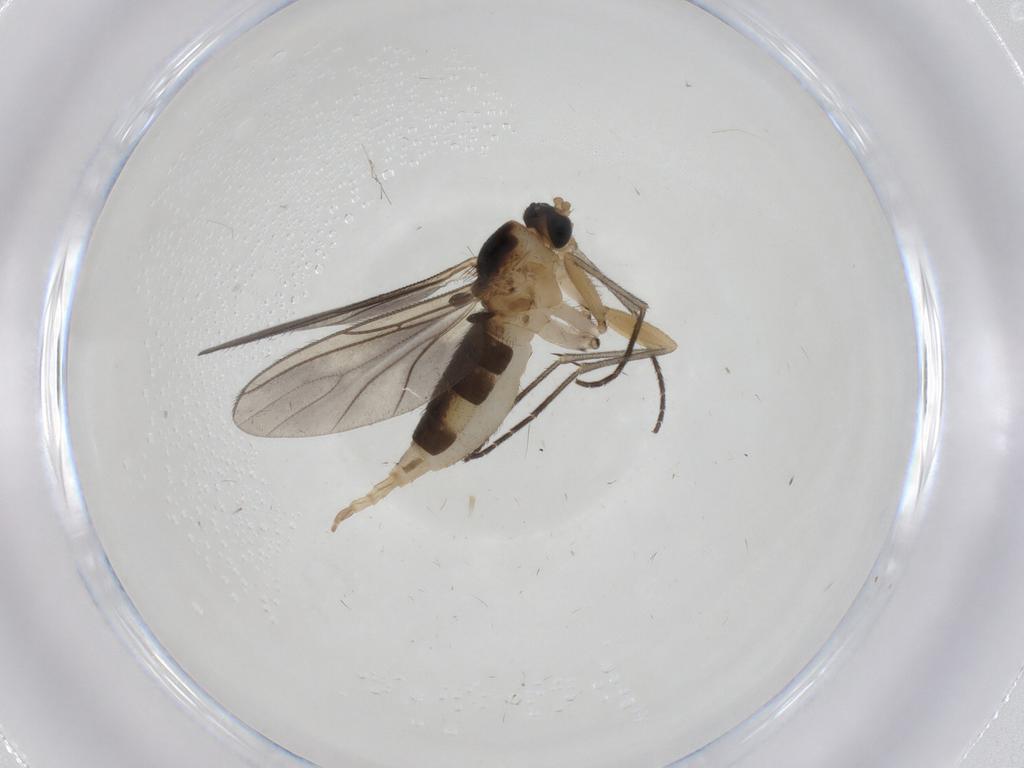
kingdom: Animalia
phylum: Arthropoda
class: Insecta
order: Diptera
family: Sciaridae
